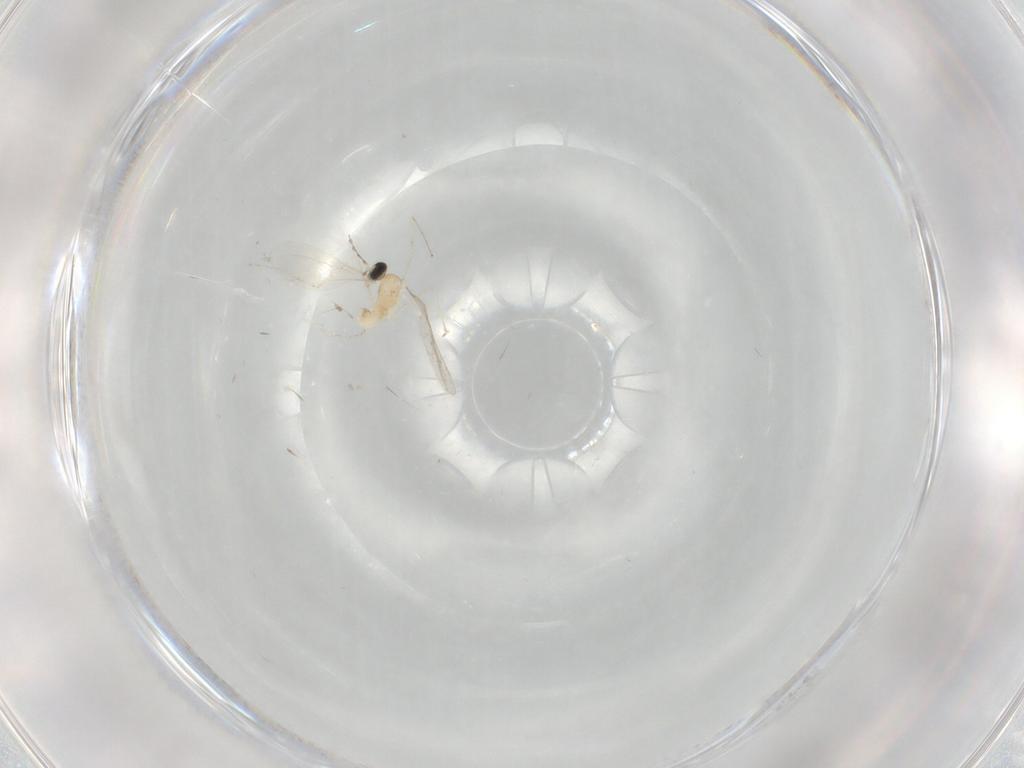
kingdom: Animalia
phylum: Arthropoda
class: Insecta
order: Diptera
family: Cecidomyiidae
